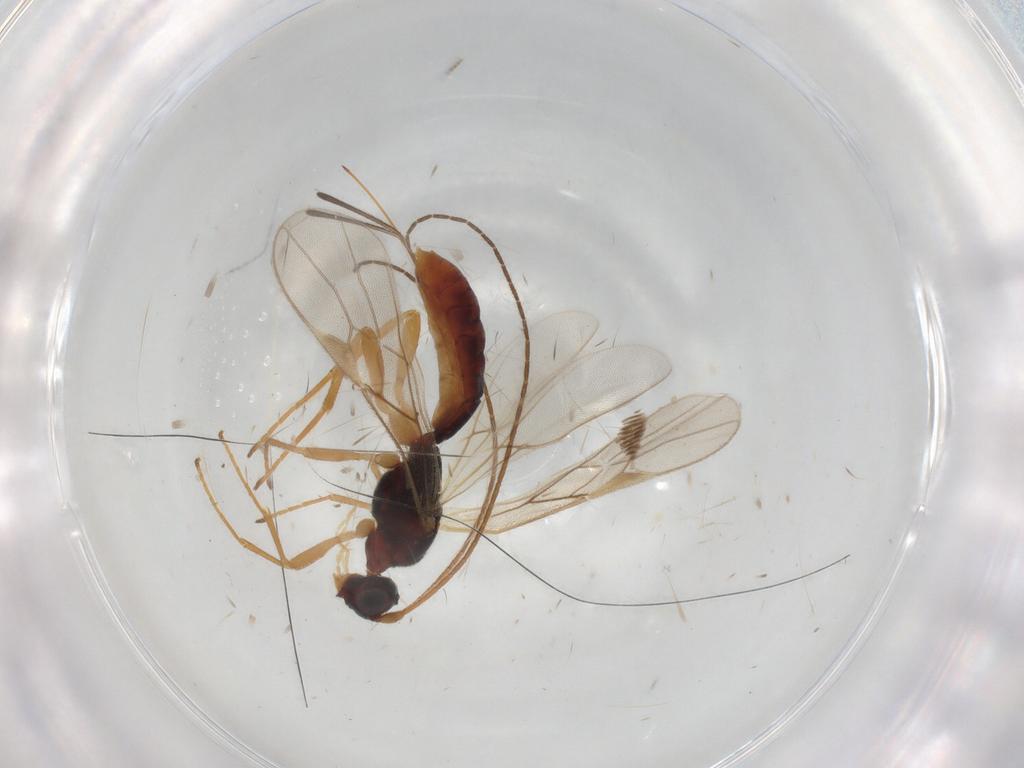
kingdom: Animalia
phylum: Arthropoda
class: Insecta
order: Hymenoptera
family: Braconidae
